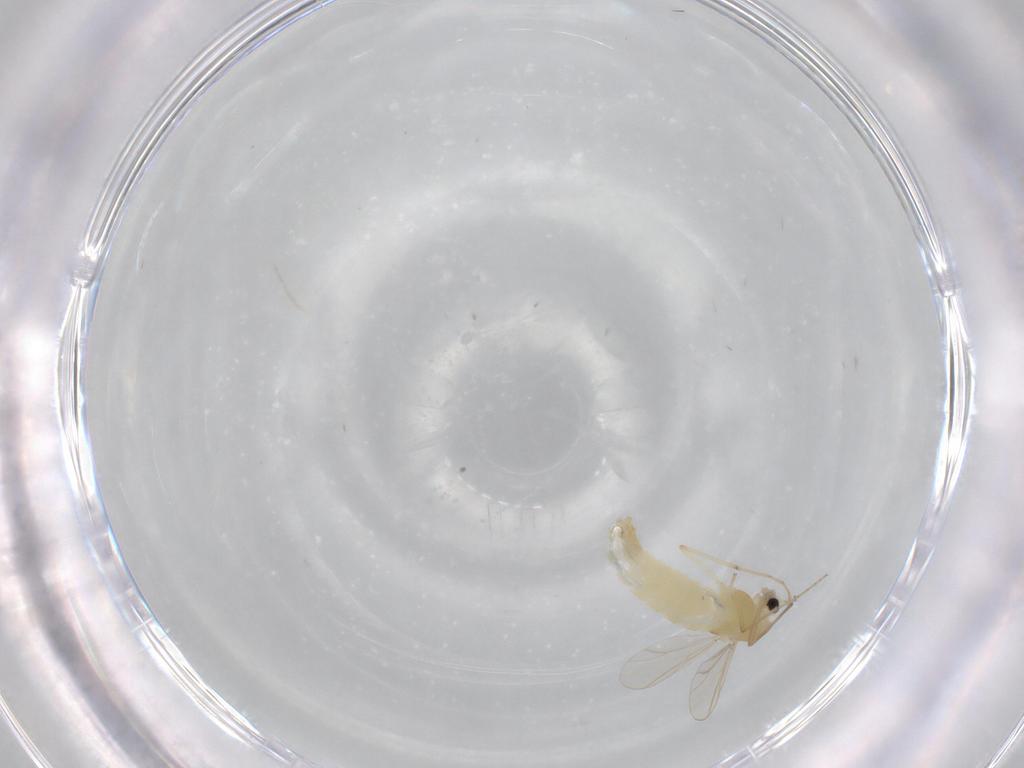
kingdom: Animalia
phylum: Arthropoda
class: Insecta
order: Diptera
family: Chironomidae
